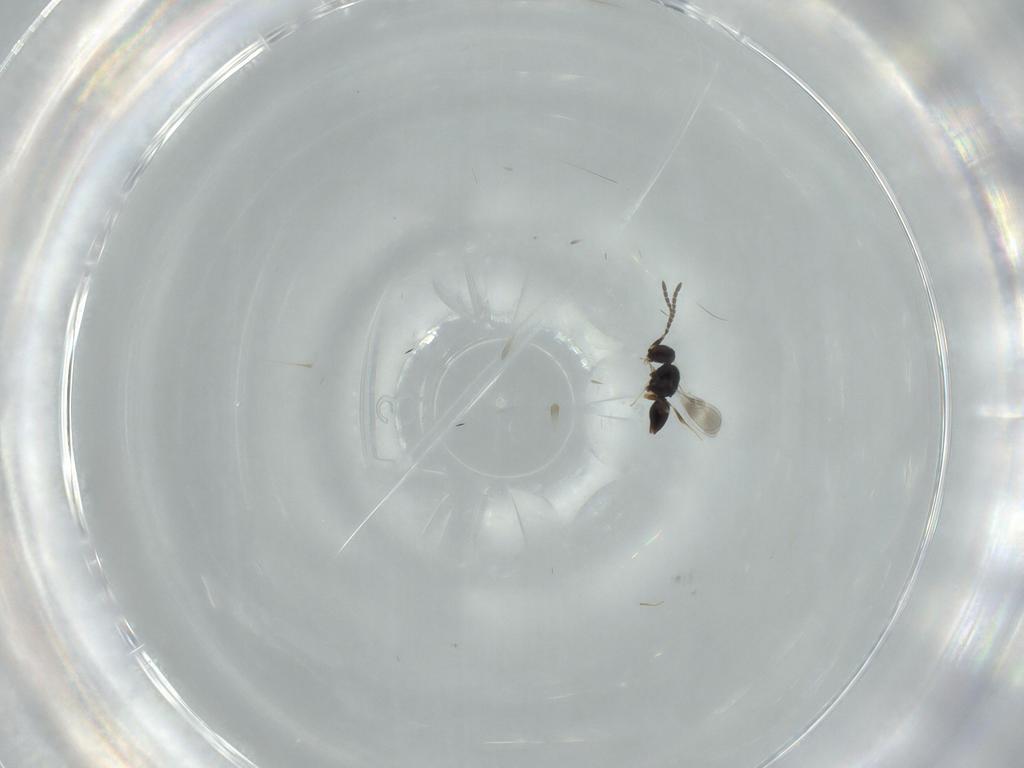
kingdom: Animalia
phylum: Arthropoda
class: Insecta
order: Hymenoptera
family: Ceraphronidae
